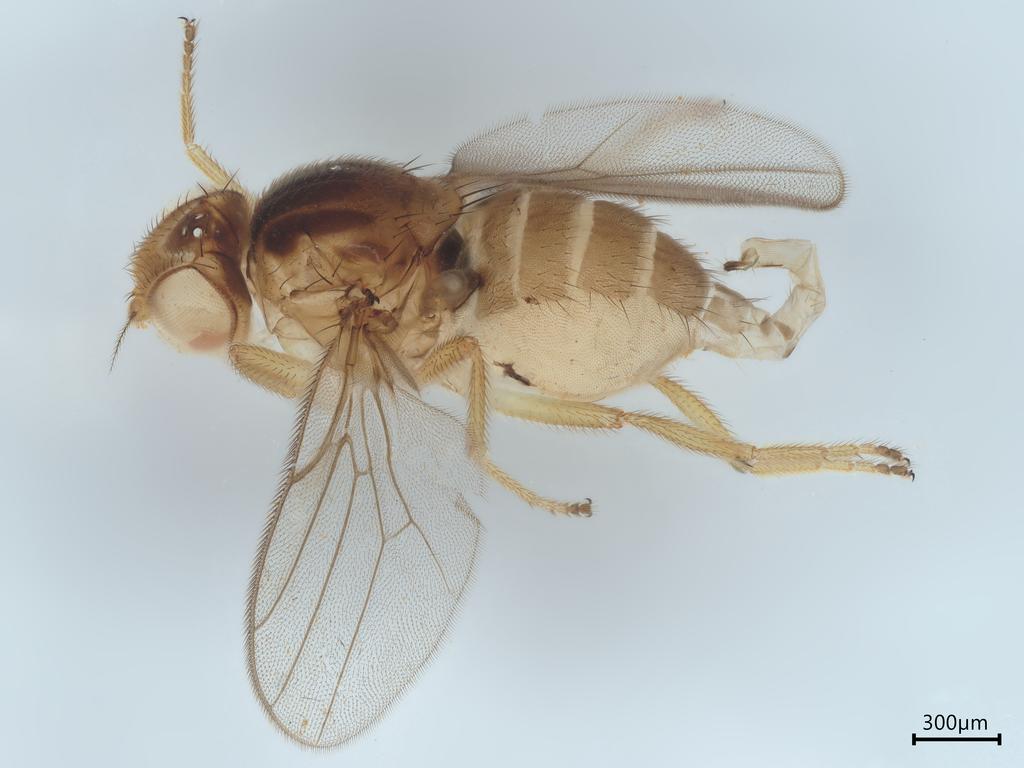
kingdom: Animalia
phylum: Arthropoda
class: Insecta
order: Diptera
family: Chloropidae
